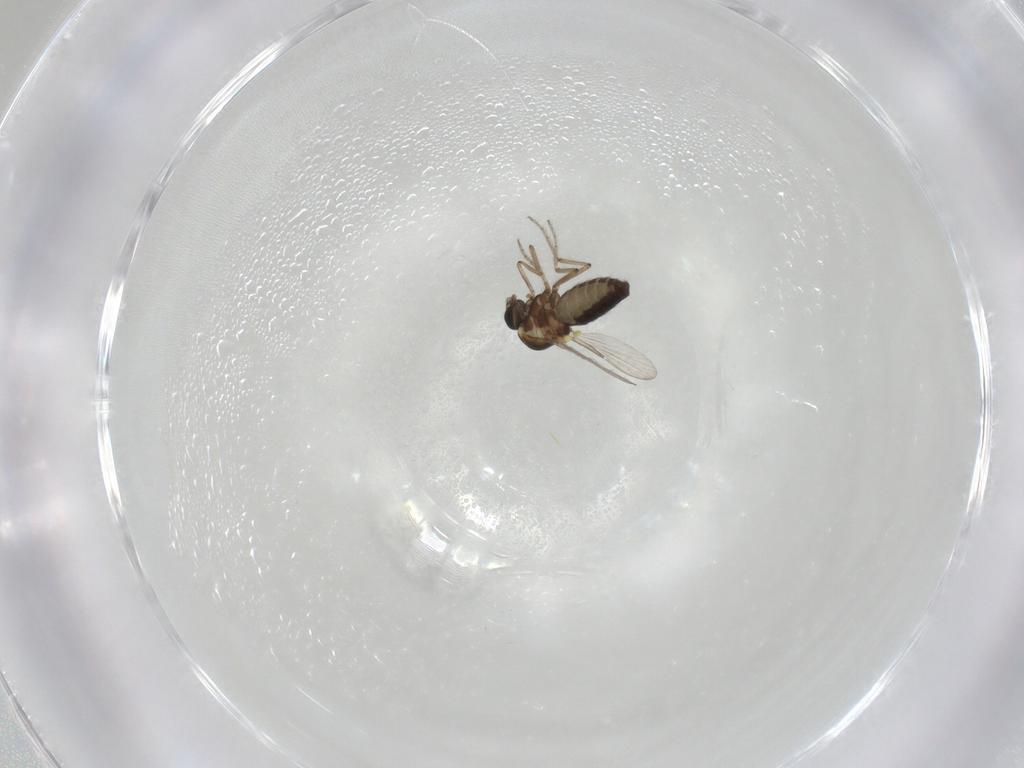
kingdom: Animalia
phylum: Arthropoda
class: Insecta
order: Diptera
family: Ceratopogonidae
